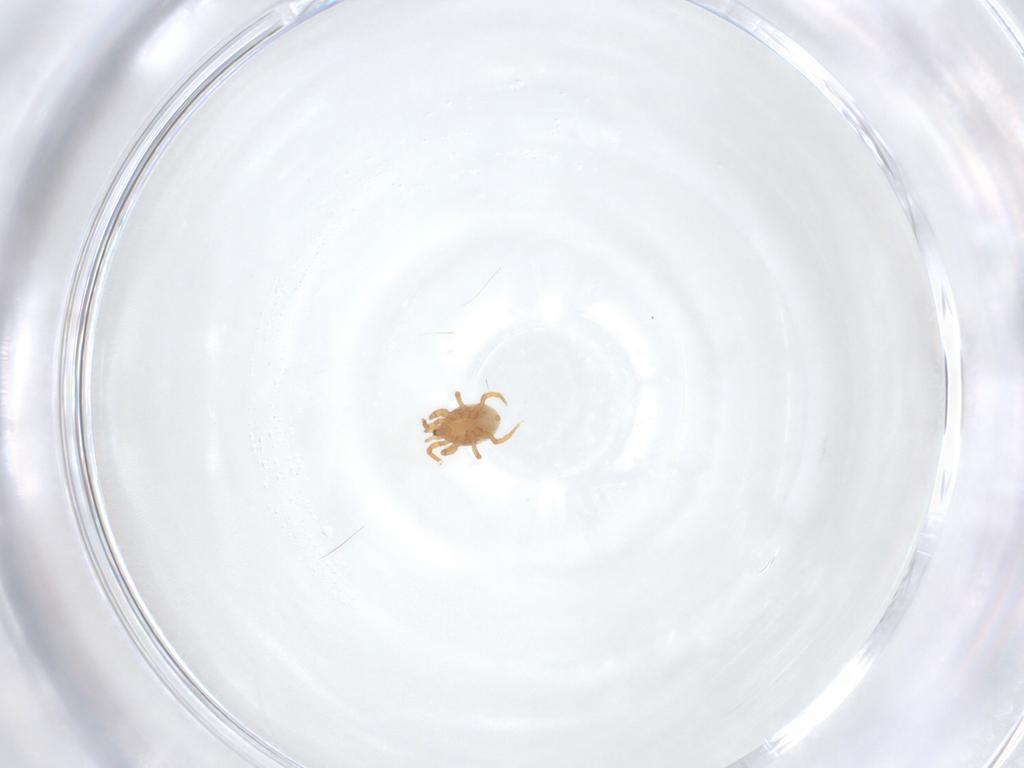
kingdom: Animalia
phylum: Arthropoda
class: Arachnida
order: Mesostigmata
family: Parasitidae
